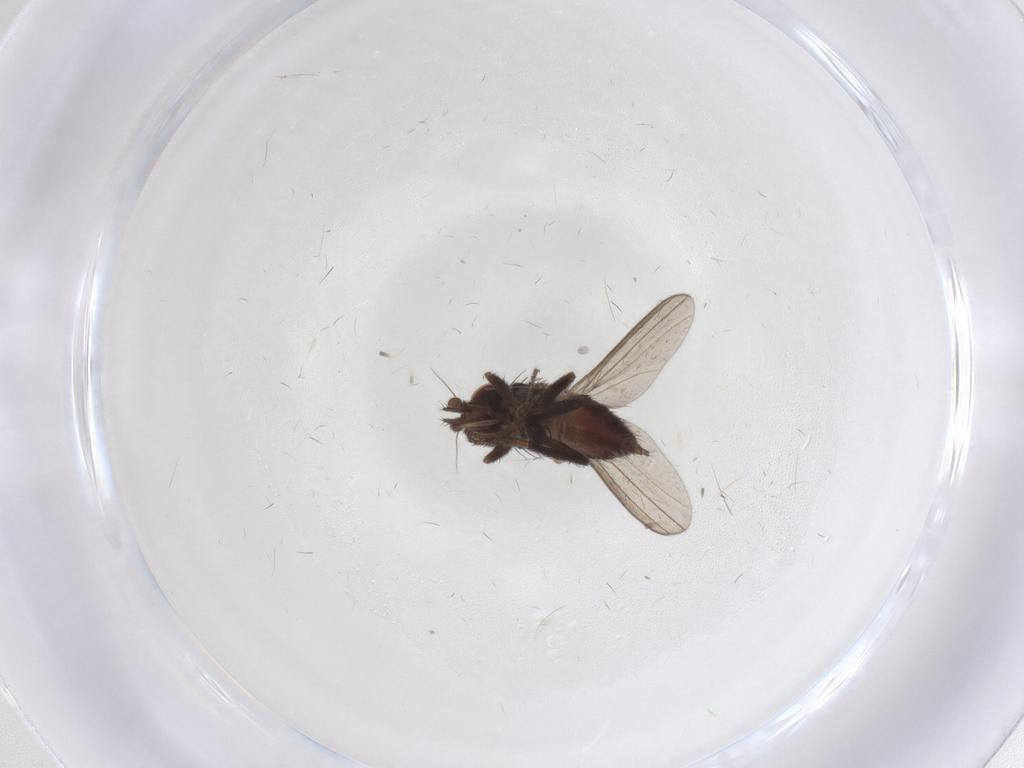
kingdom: Animalia
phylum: Arthropoda
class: Insecta
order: Diptera
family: Milichiidae
